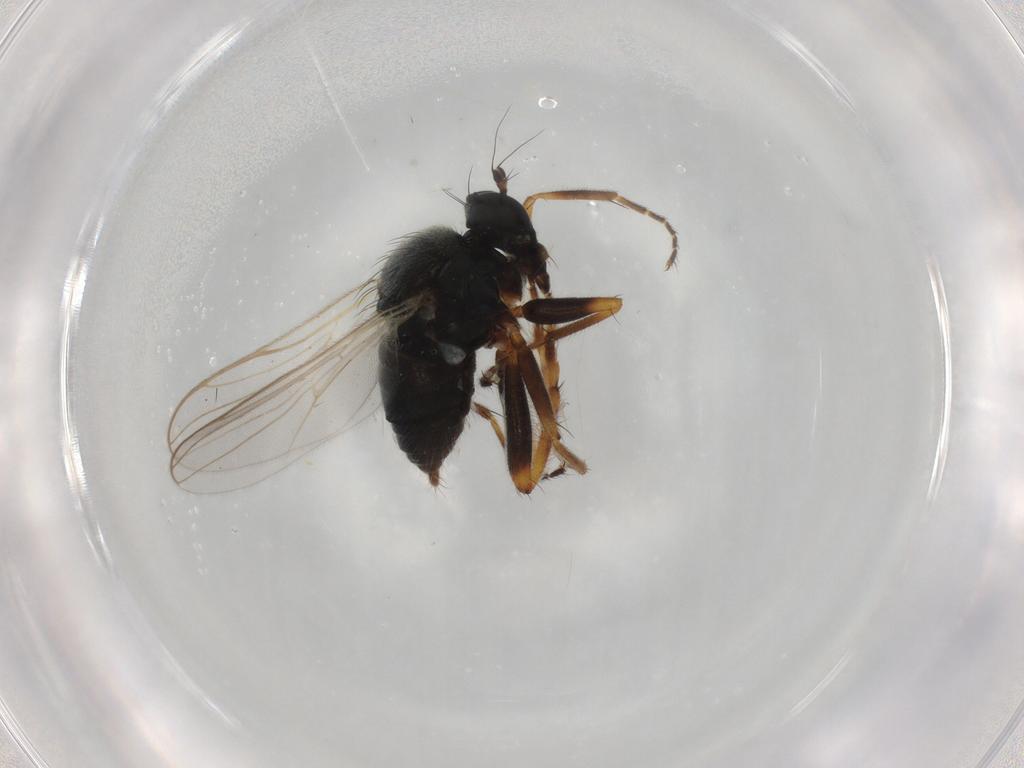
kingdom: Animalia
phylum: Arthropoda
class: Insecta
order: Diptera
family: Hybotidae
